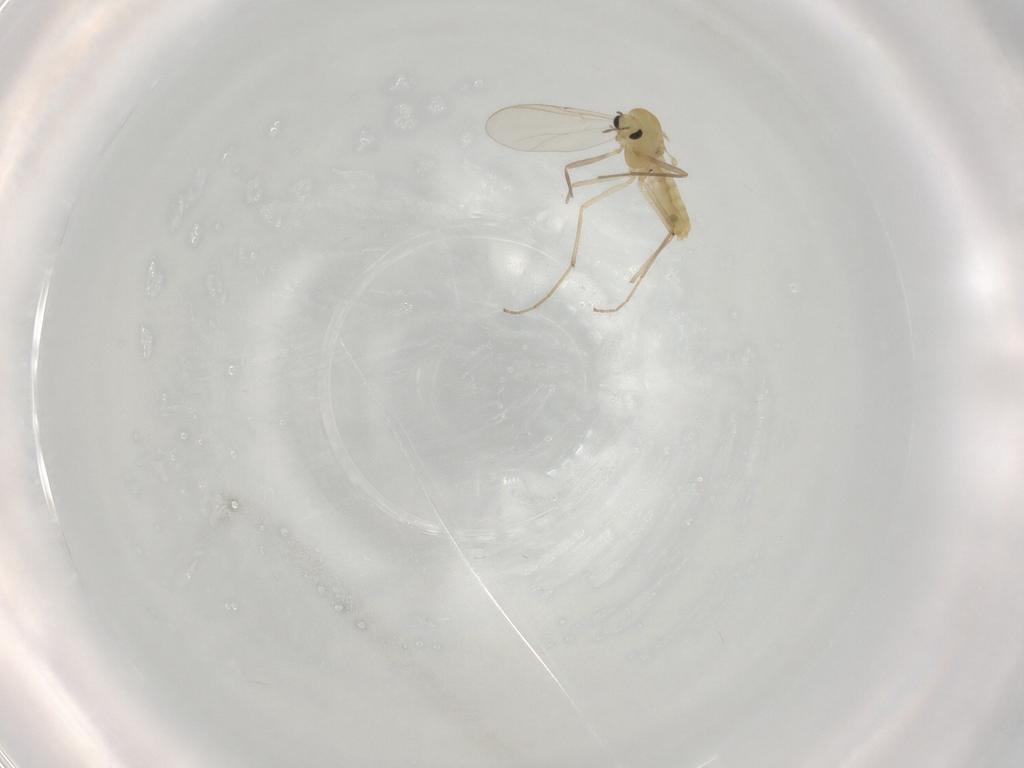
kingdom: Animalia
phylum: Arthropoda
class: Insecta
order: Diptera
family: Chironomidae
